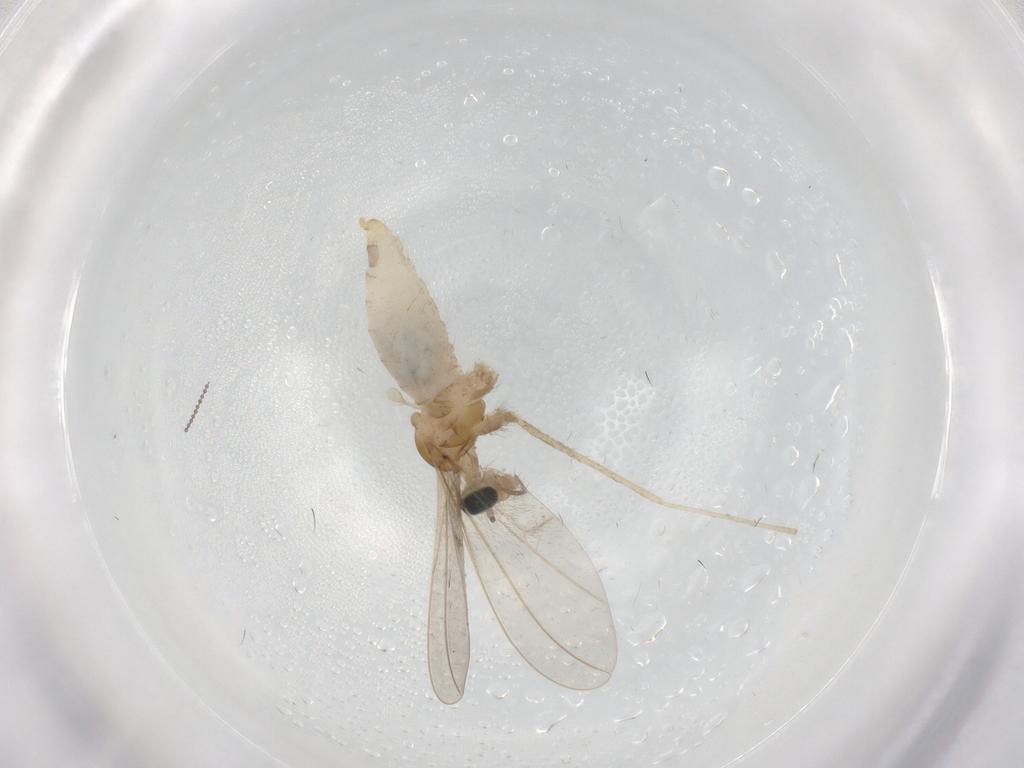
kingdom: Animalia
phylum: Arthropoda
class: Insecta
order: Diptera
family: Cecidomyiidae
